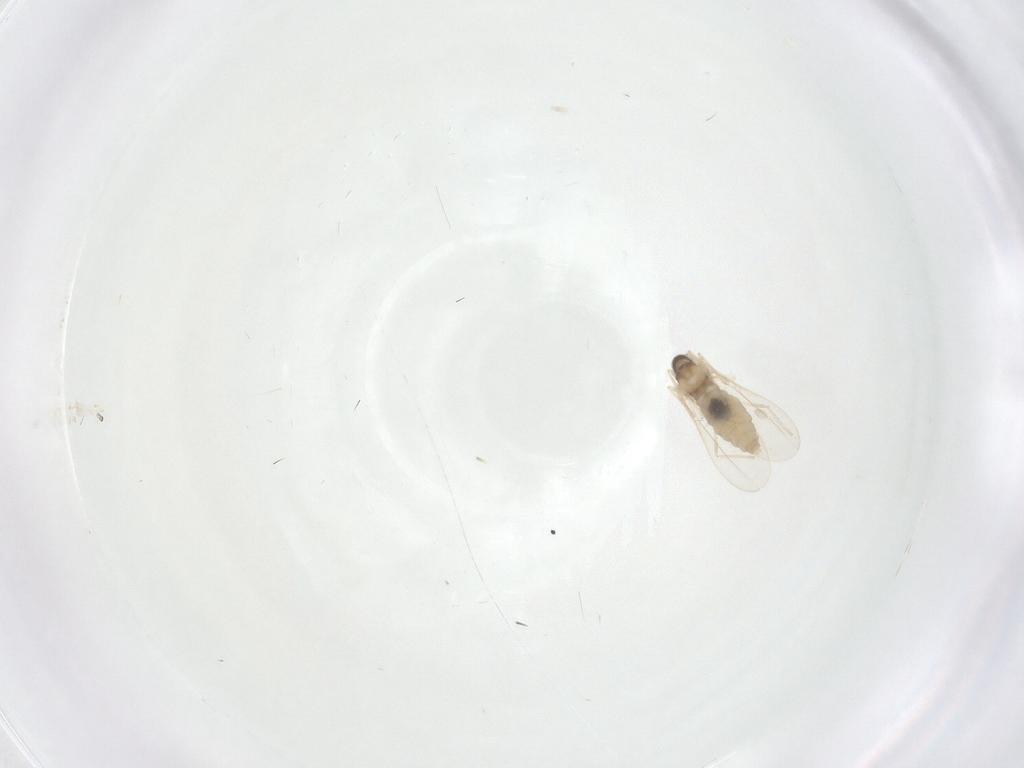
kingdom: Animalia
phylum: Arthropoda
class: Insecta
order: Diptera
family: Cecidomyiidae
